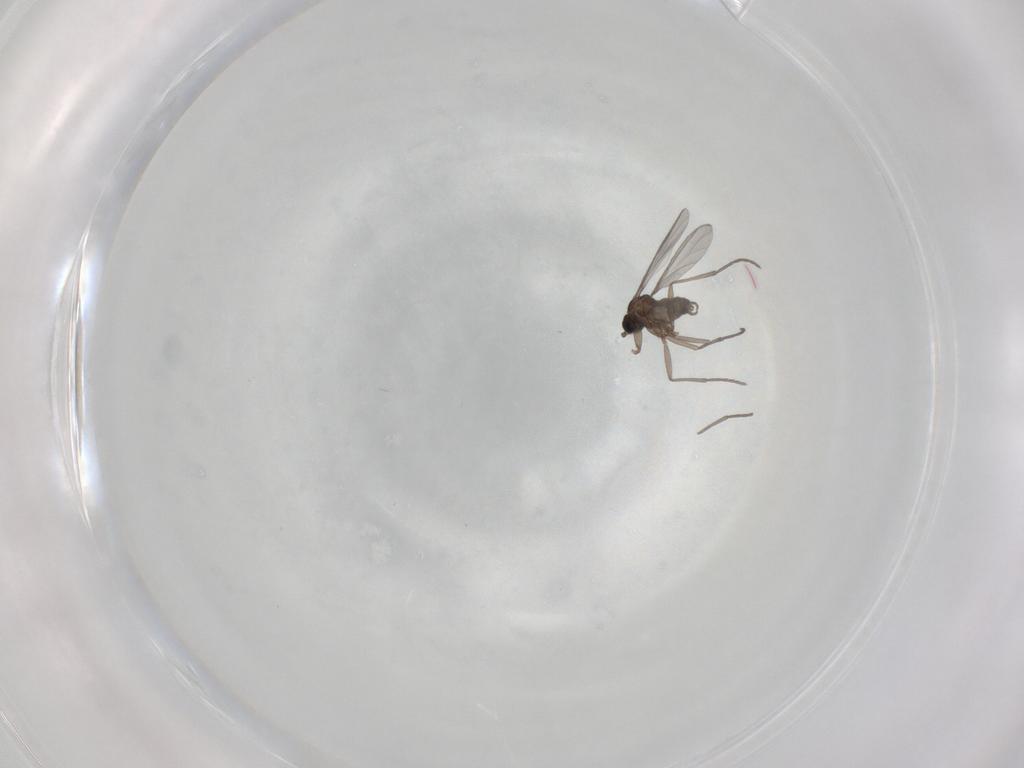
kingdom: Animalia
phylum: Arthropoda
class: Insecta
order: Diptera
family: Sciaridae
